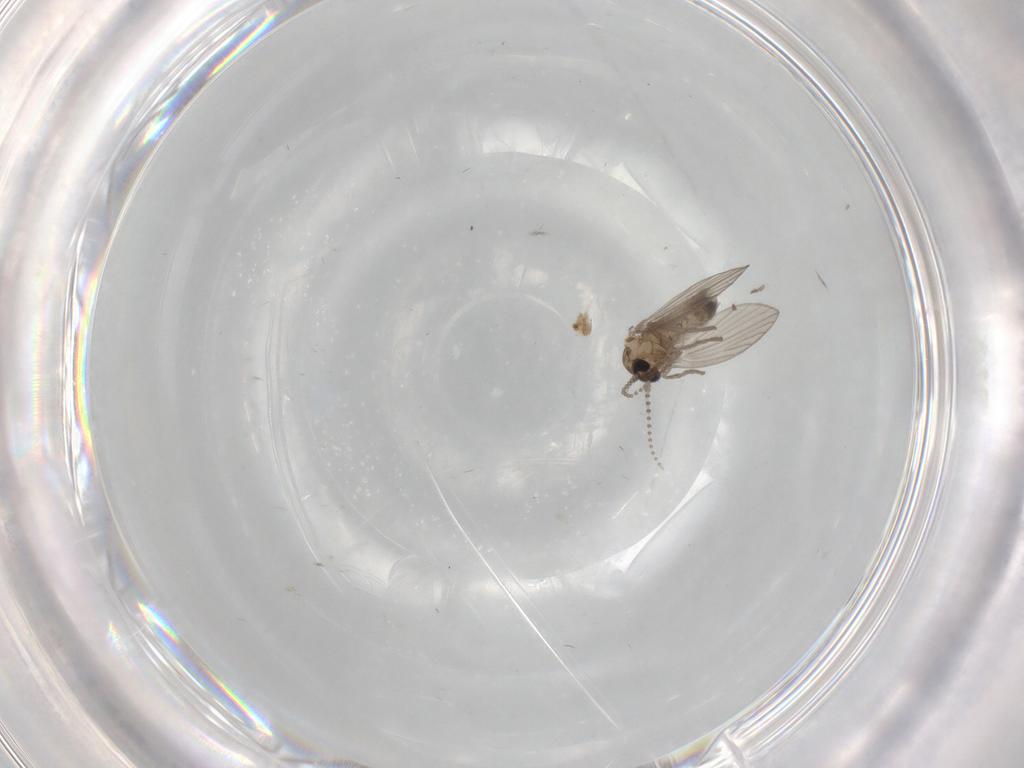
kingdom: Animalia
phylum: Arthropoda
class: Insecta
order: Diptera
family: Psychodidae
